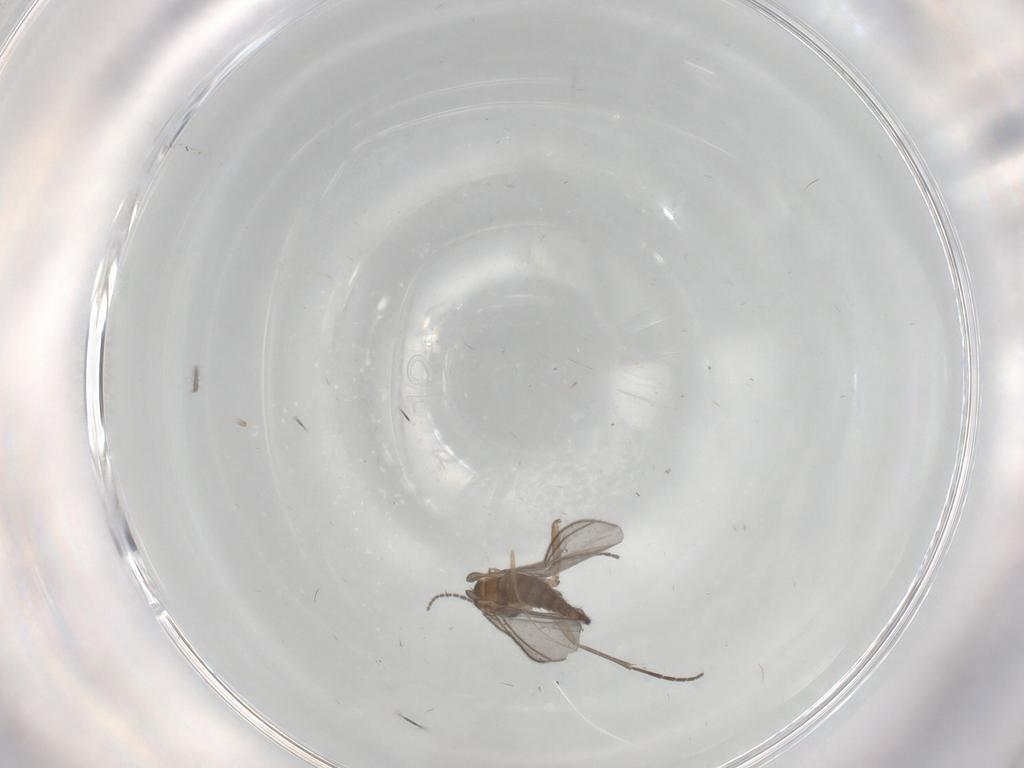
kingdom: Animalia
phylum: Arthropoda
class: Insecta
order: Diptera
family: Sciaridae
